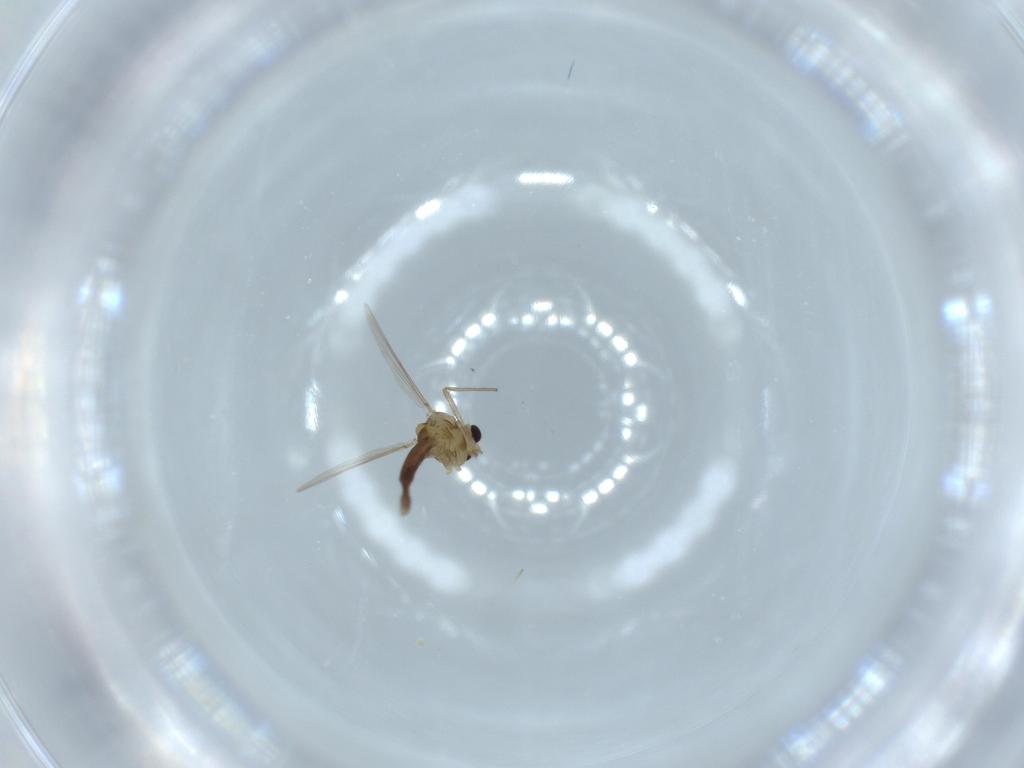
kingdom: Animalia
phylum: Arthropoda
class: Insecta
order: Diptera
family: Chironomidae
